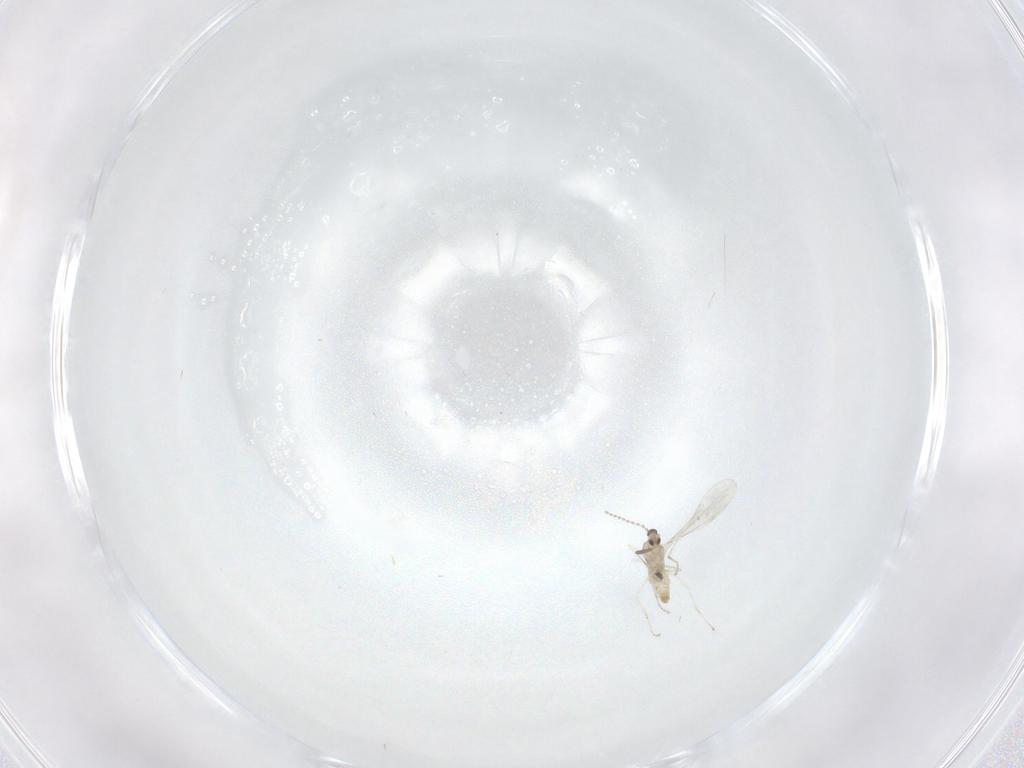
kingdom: Animalia
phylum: Arthropoda
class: Insecta
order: Diptera
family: Cecidomyiidae
